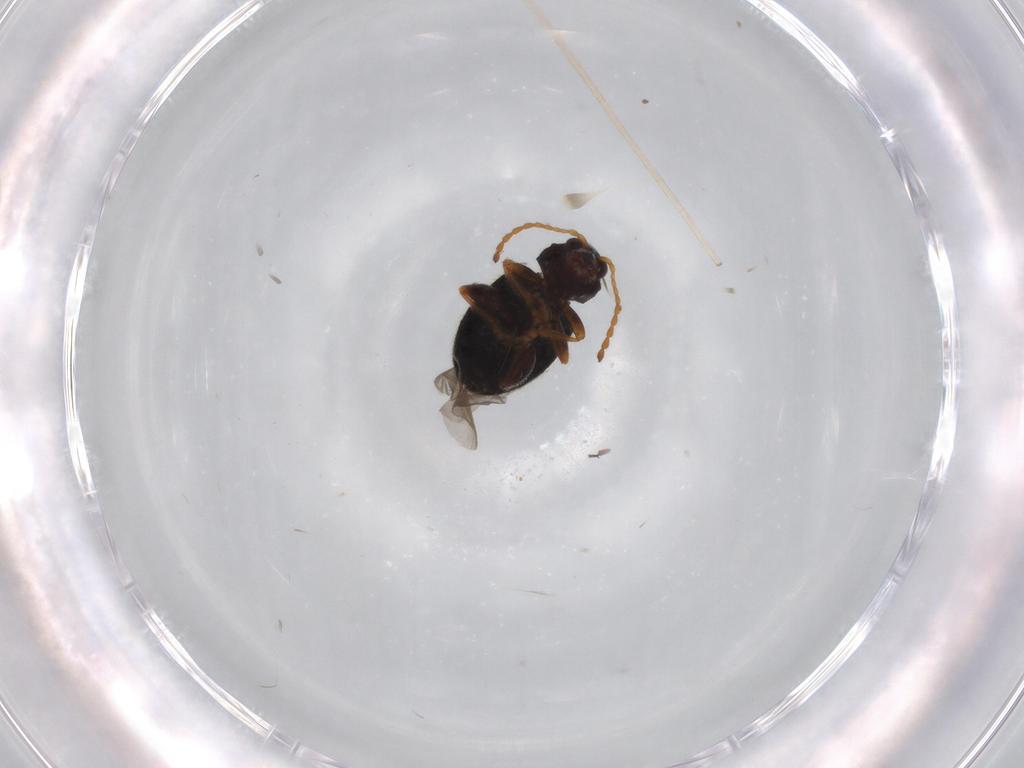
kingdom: Animalia
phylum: Arthropoda
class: Insecta
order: Coleoptera
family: Chrysomelidae
